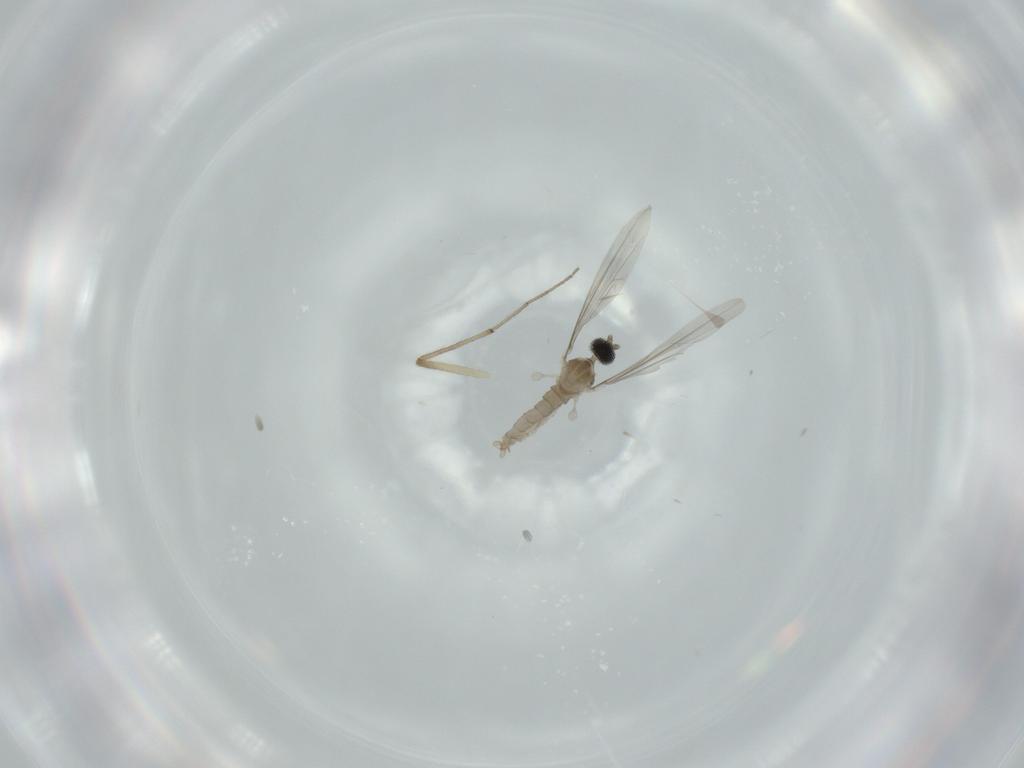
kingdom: Animalia
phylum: Arthropoda
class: Insecta
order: Diptera
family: Chironomidae
